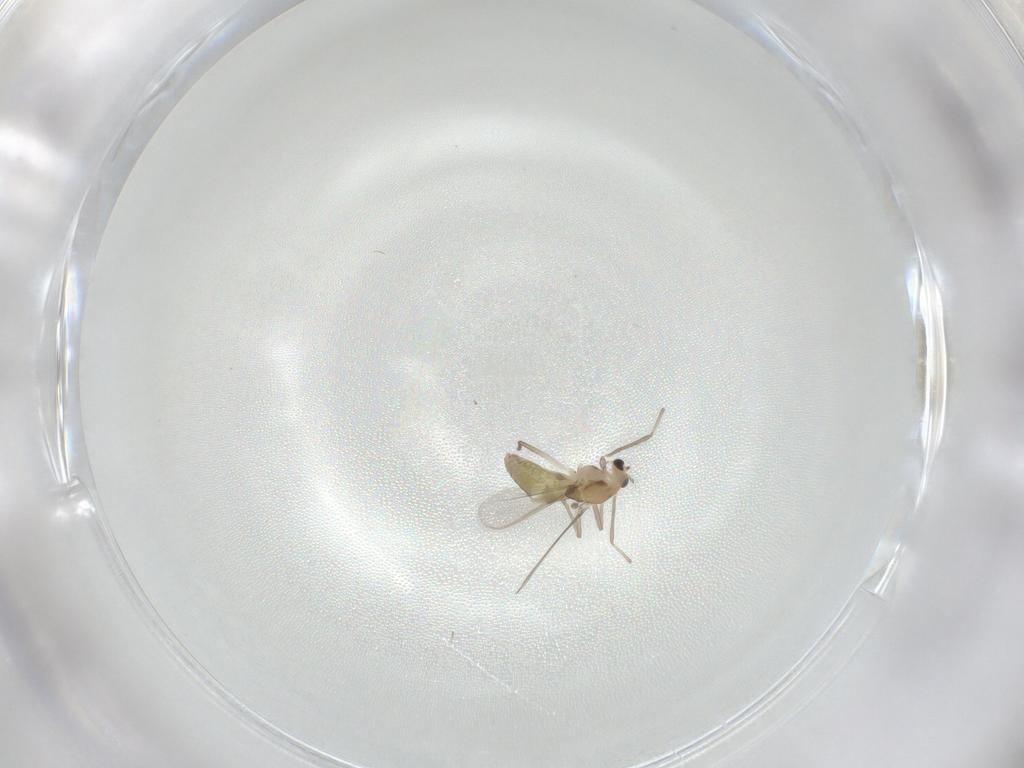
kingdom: Animalia
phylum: Arthropoda
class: Insecta
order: Diptera
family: Chironomidae
